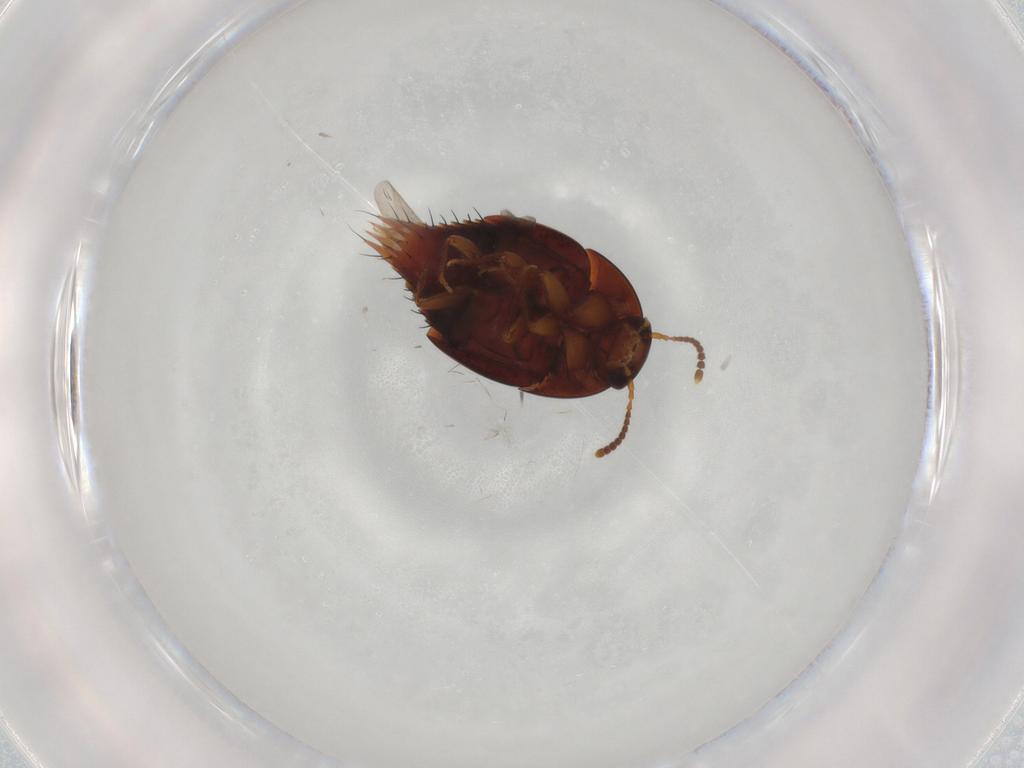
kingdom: Animalia
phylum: Arthropoda
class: Insecta
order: Coleoptera
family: Staphylinidae
